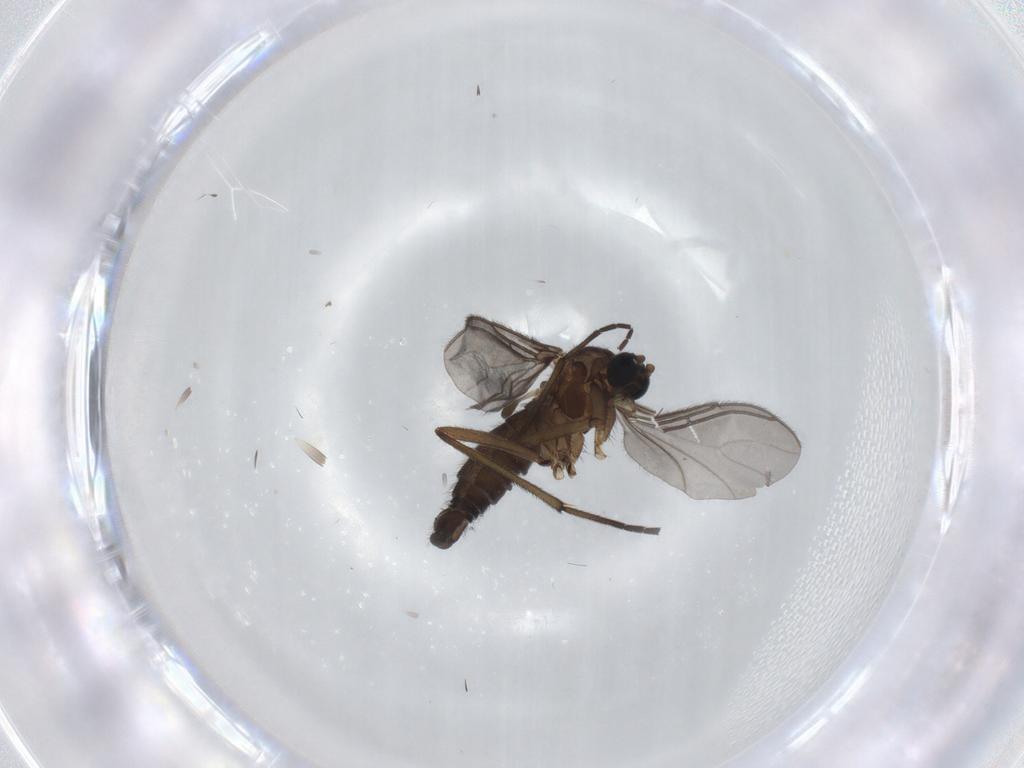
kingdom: Animalia
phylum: Arthropoda
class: Insecta
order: Diptera
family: Sciaridae
